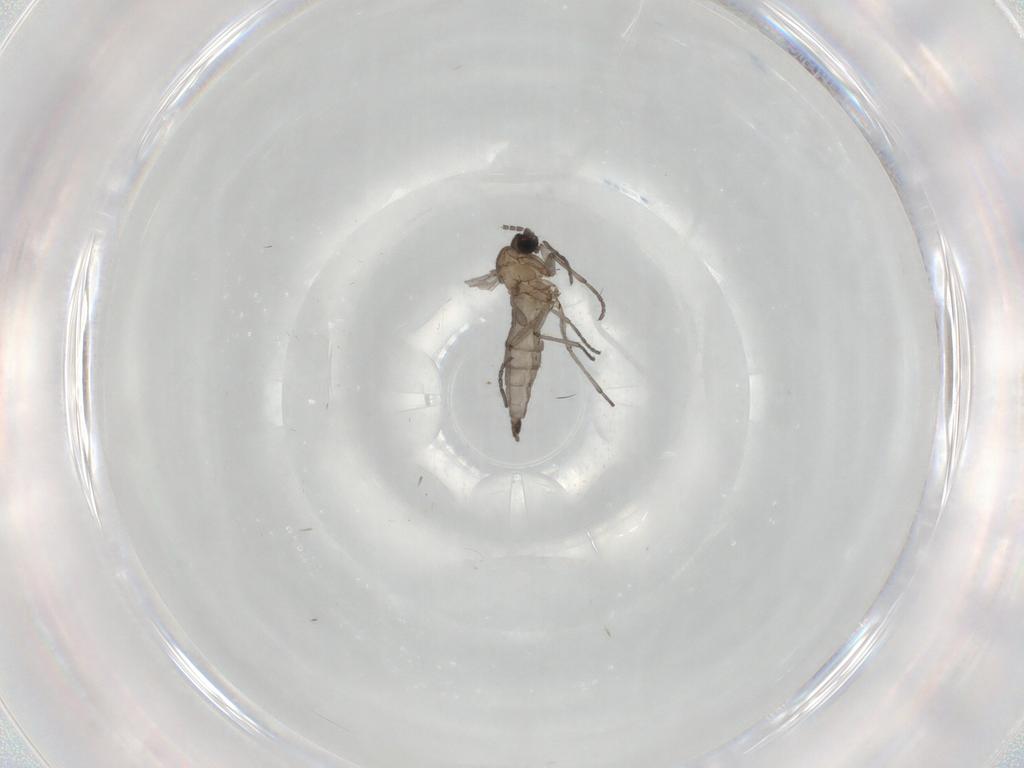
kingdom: Animalia
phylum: Arthropoda
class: Insecta
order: Diptera
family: Sciaridae
